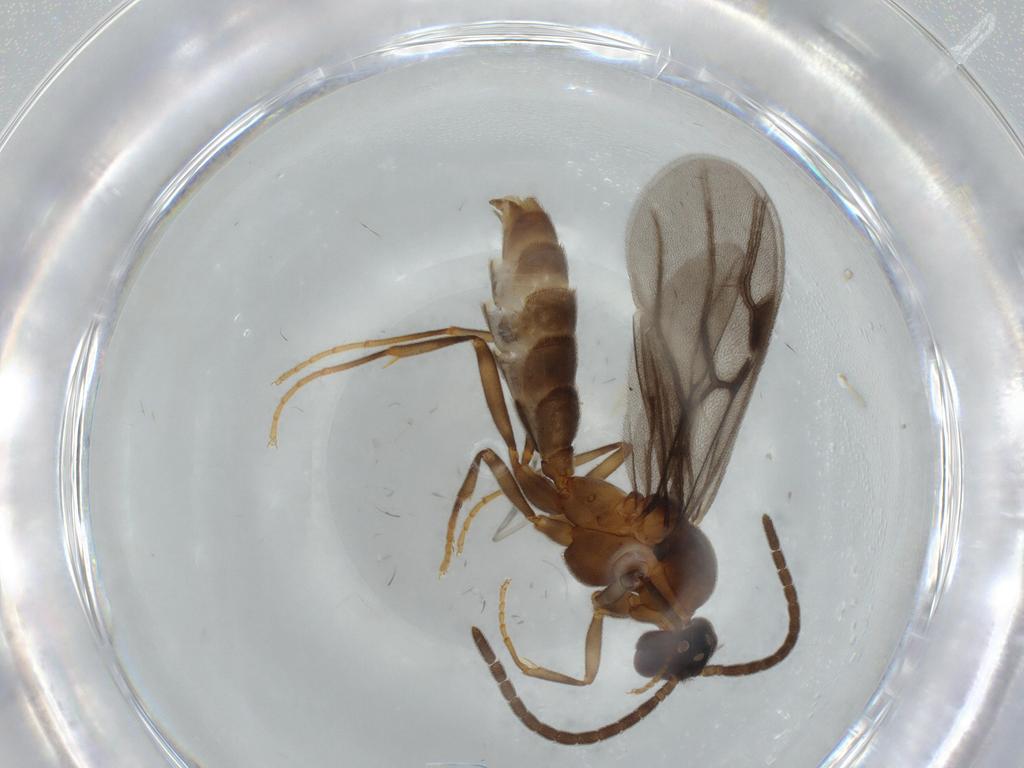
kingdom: Animalia
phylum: Arthropoda
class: Insecta
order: Hymenoptera
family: Formicidae
